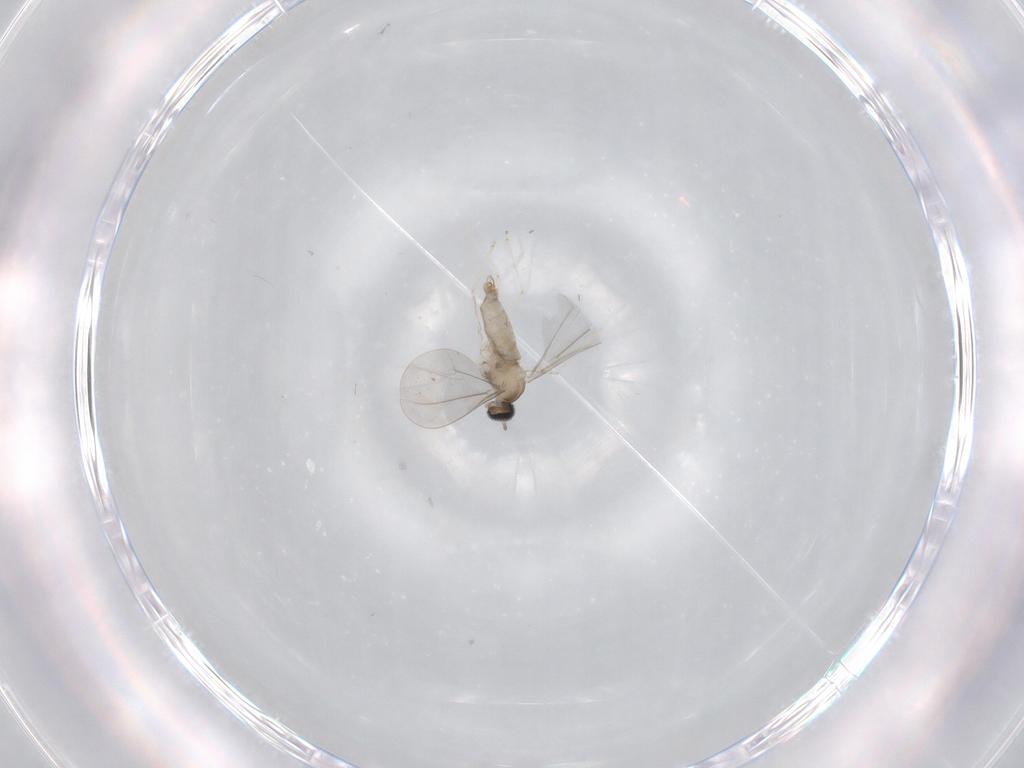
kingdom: Animalia
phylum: Arthropoda
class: Insecta
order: Diptera
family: Cecidomyiidae
